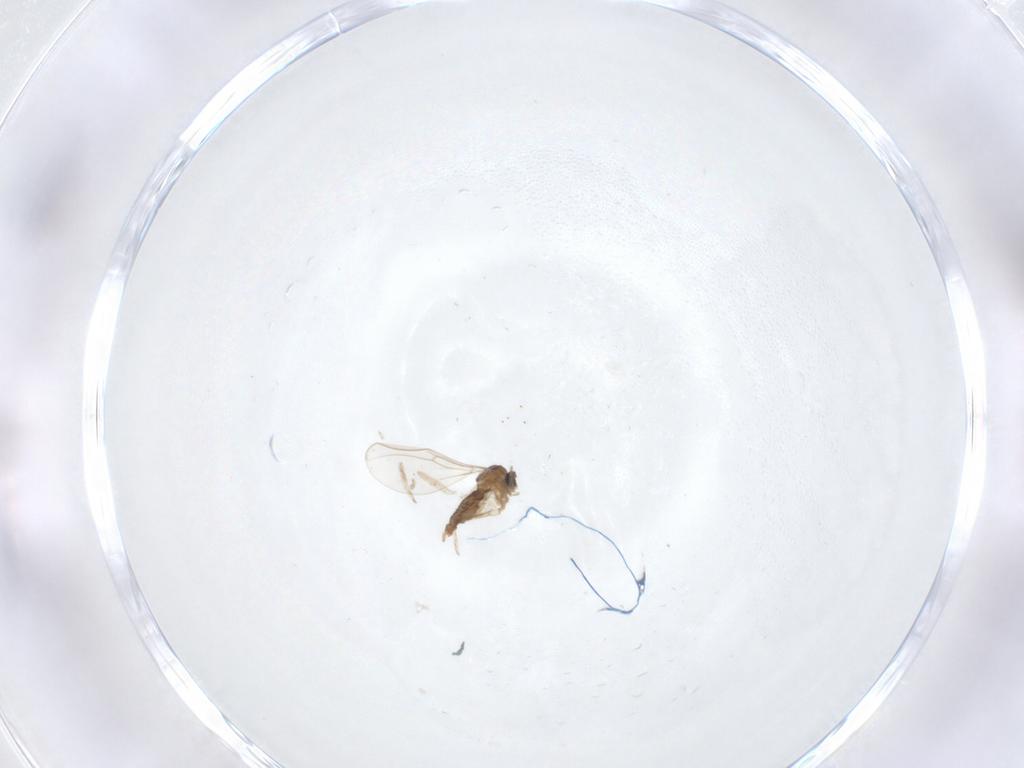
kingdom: Animalia
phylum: Arthropoda
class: Insecta
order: Diptera
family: Cecidomyiidae
